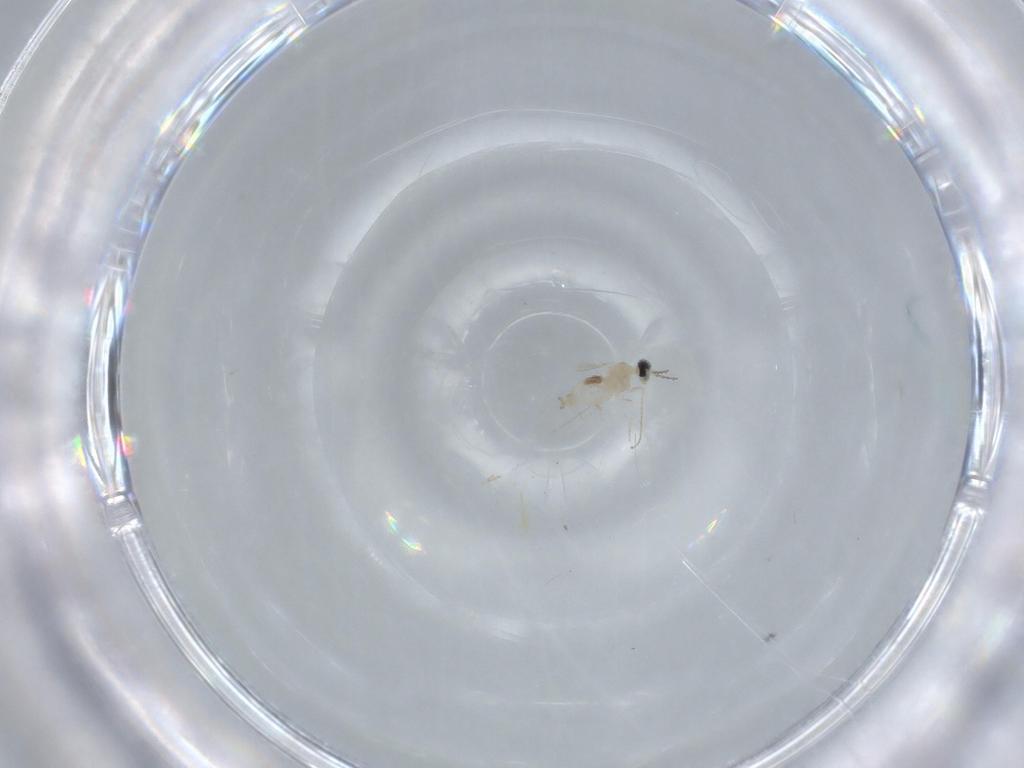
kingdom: Animalia
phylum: Arthropoda
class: Insecta
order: Diptera
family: Cecidomyiidae
